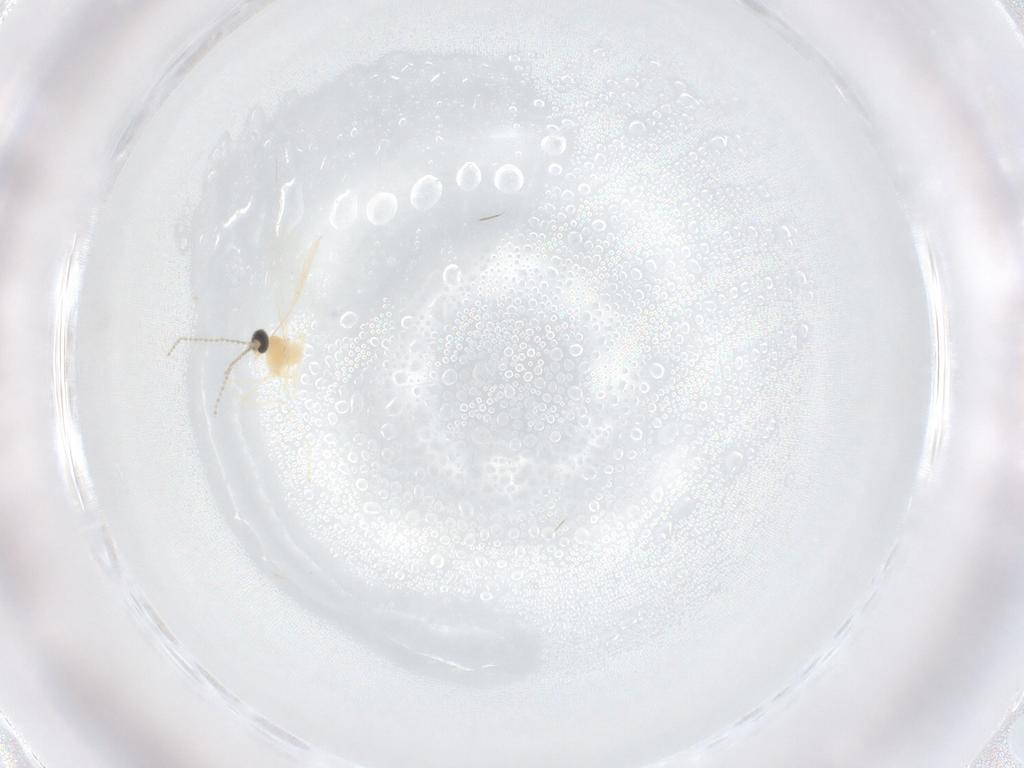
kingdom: Animalia
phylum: Arthropoda
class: Insecta
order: Diptera
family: Cecidomyiidae
